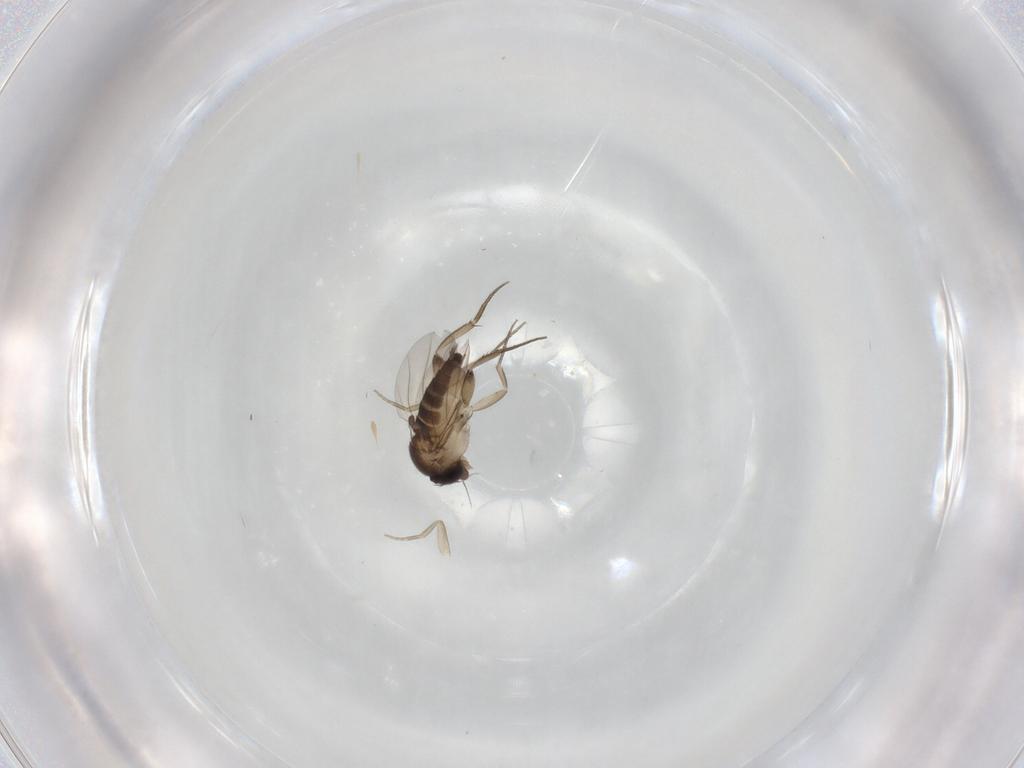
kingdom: Animalia
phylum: Arthropoda
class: Insecta
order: Diptera
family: Phoridae
